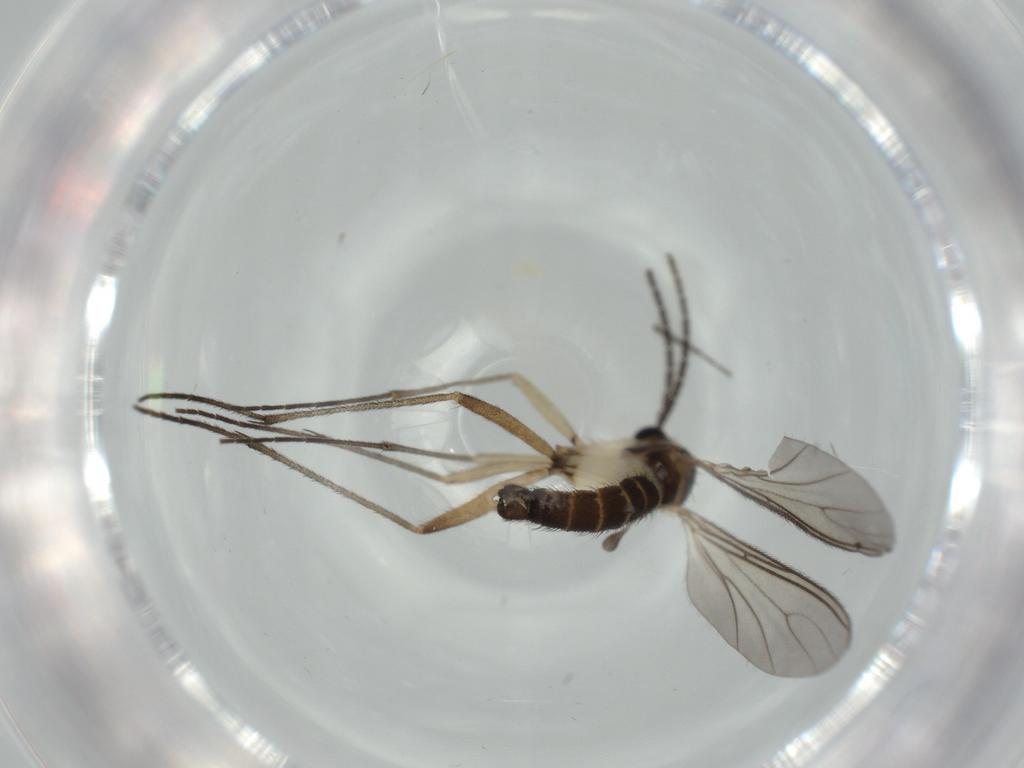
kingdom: Animalia
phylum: Arthropoda
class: Insecta
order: Diptera
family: Sciaridae
